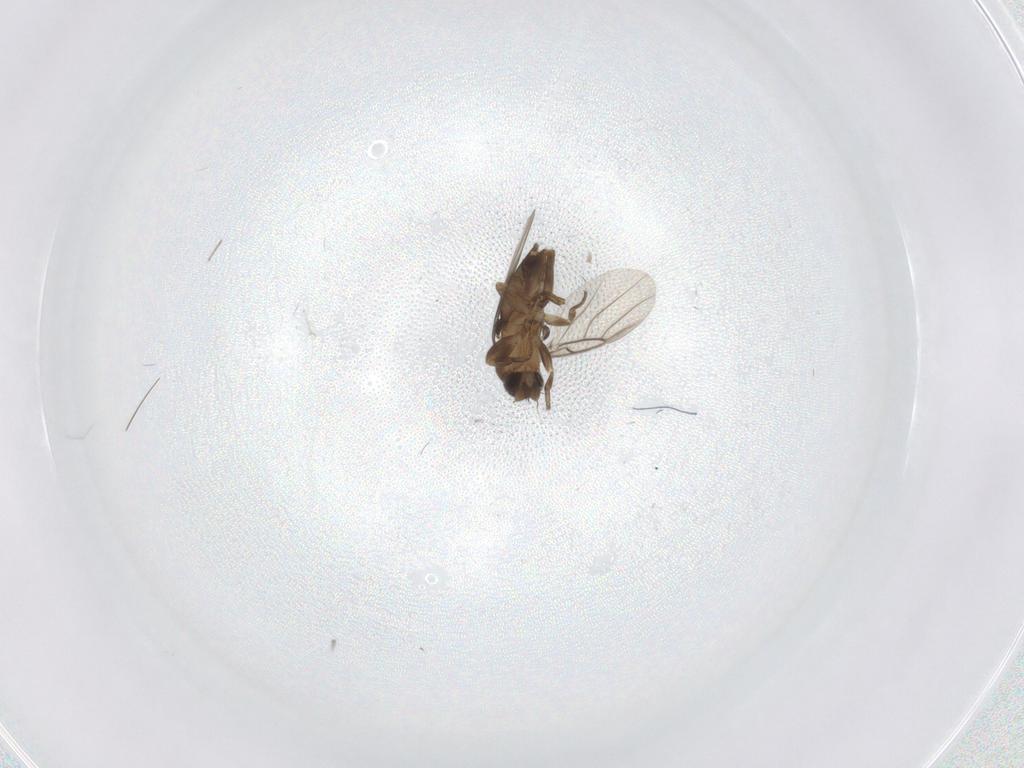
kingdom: Animalia
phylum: Arthropoda
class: Insecta
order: Diptera
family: Phoridae
